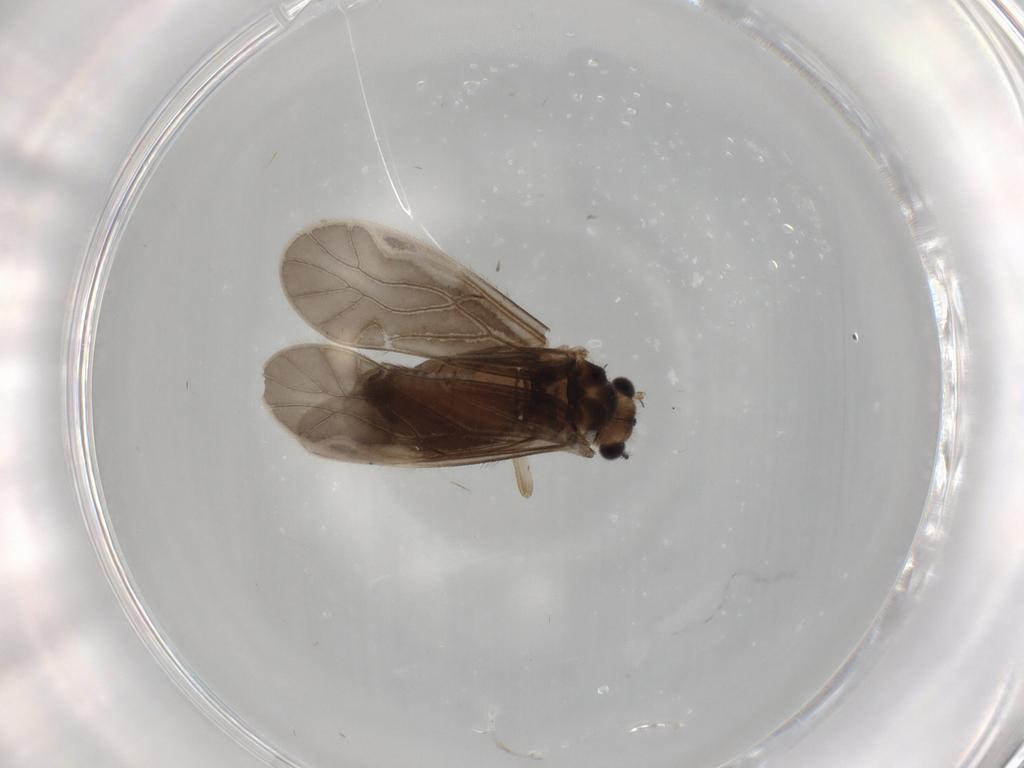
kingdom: Animalia
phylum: Arthropoda
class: Insecta
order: Psocodea
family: Caeciliusidae
